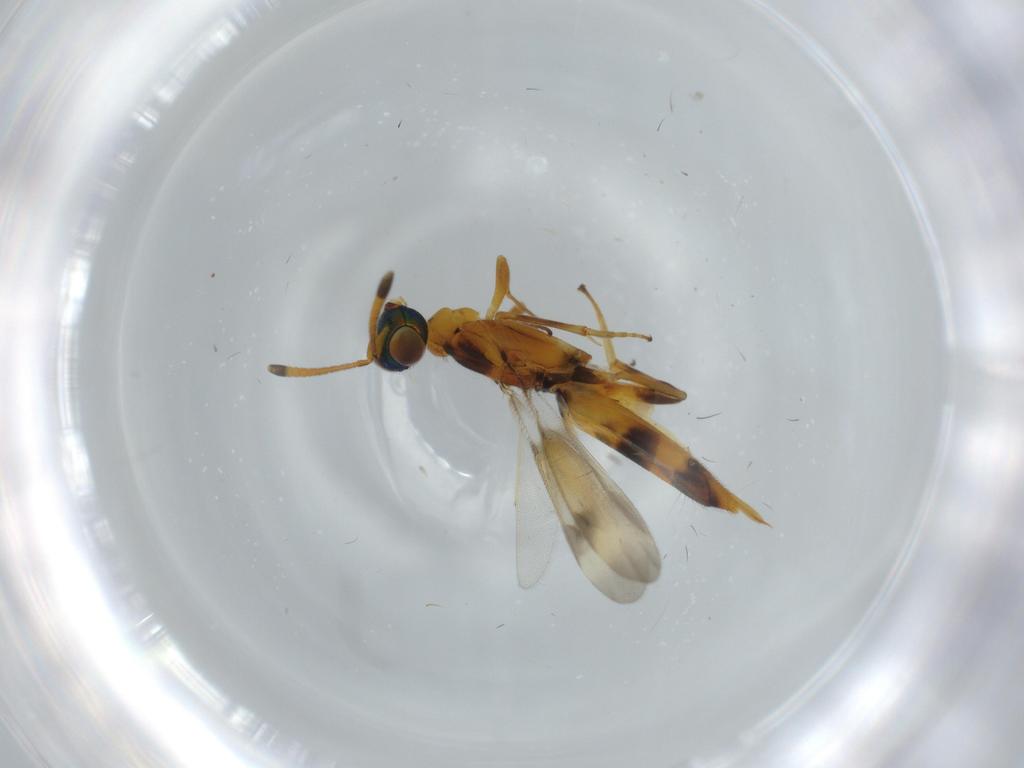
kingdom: Animalia
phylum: Arthropoda
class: Insecta
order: Hymenoptera
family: Eupelmidae
